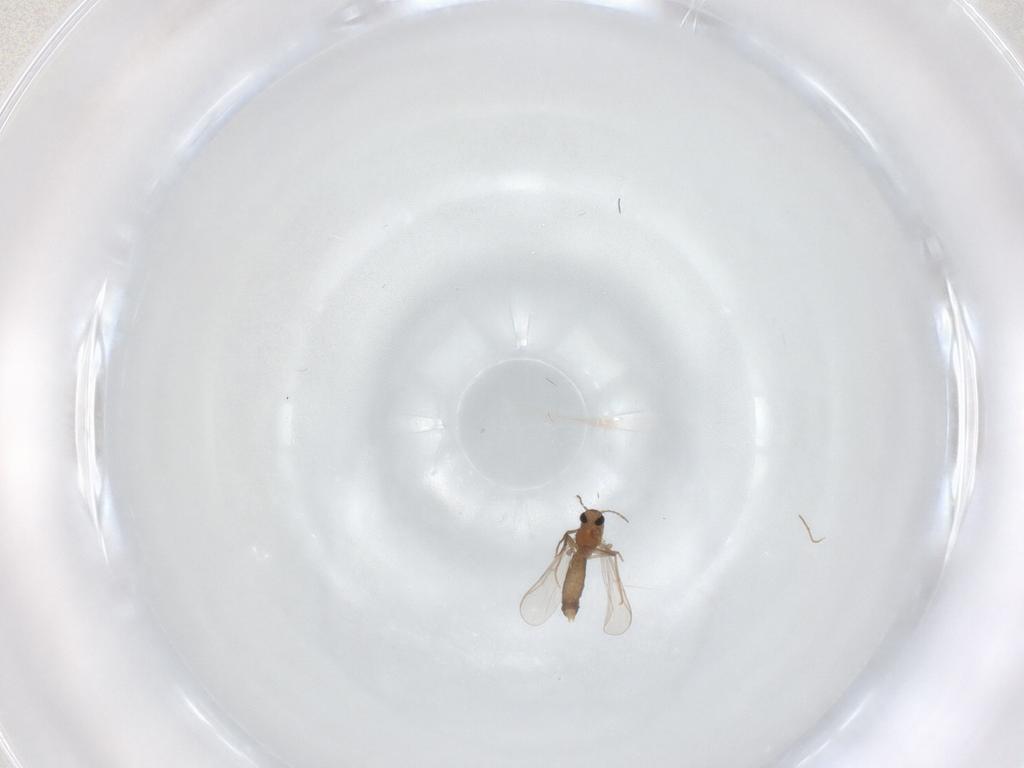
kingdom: Animalia
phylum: Arthropoda
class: Insecta
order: Diptera
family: Chironomidae
